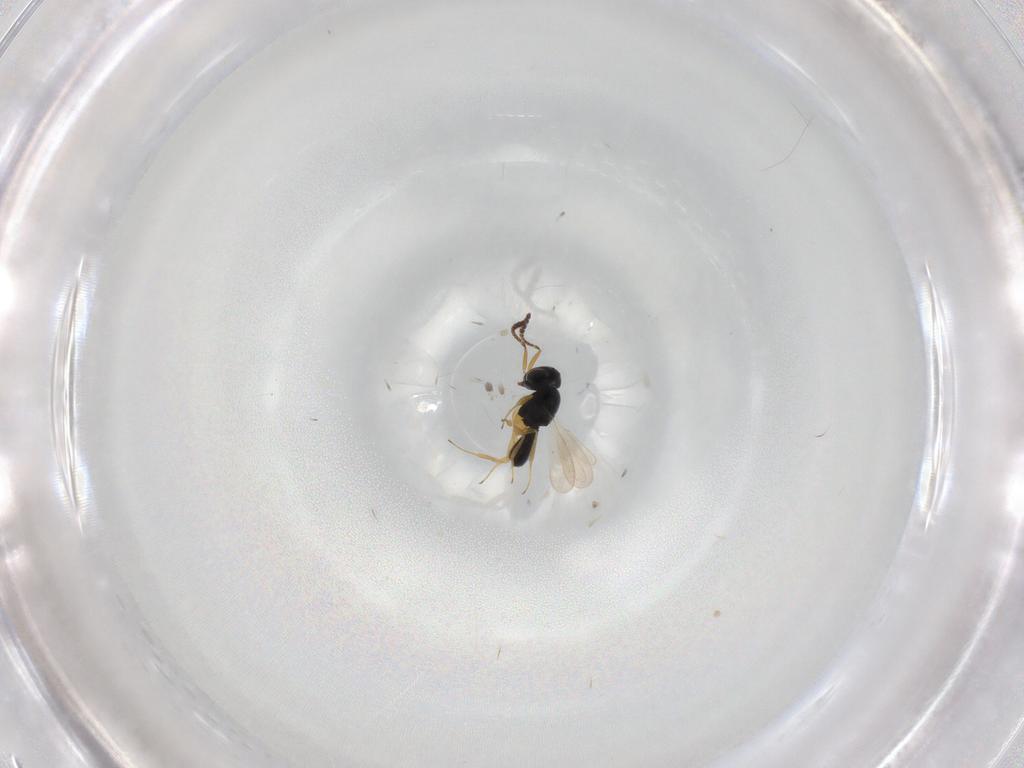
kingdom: Animalia
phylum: Arthropoda
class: Insecta
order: Hymenoptera
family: Scelionidae
